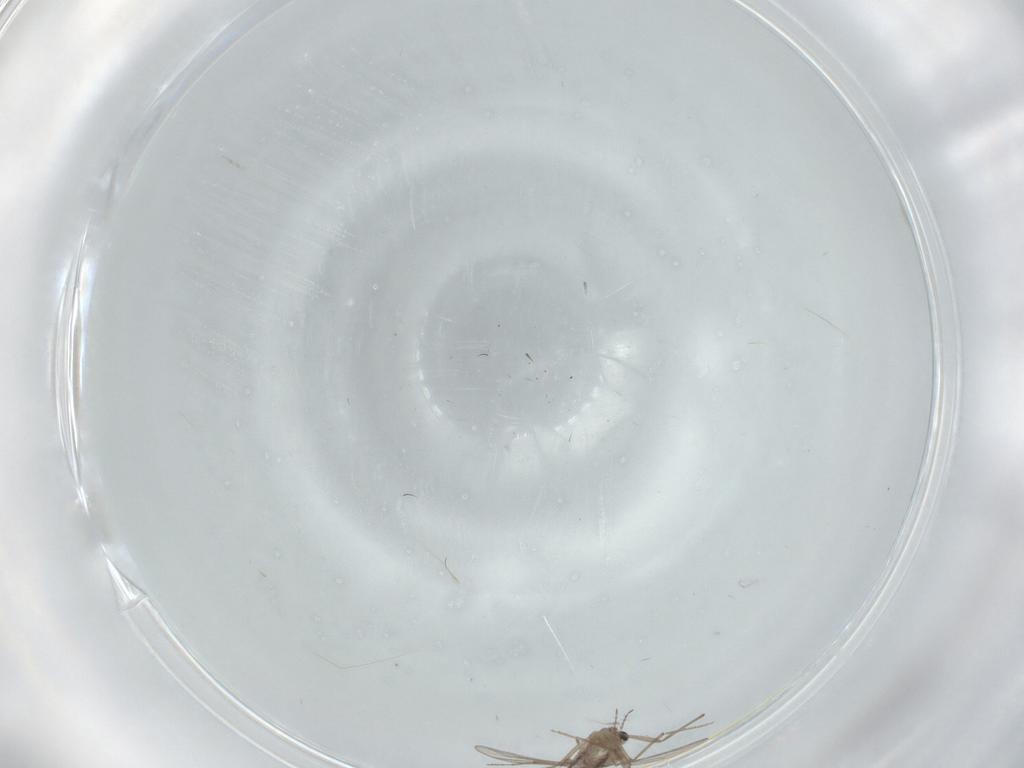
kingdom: Animalia
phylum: Arthropoda
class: Insecta
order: Diptera
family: Chironomidae
